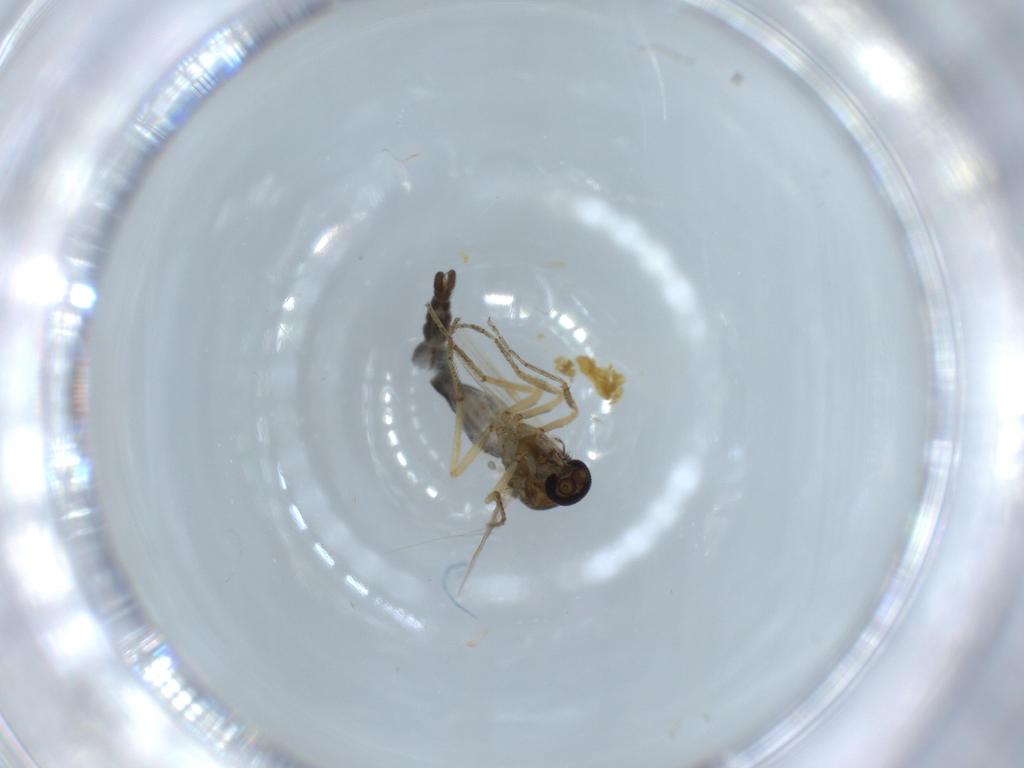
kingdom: Animalia
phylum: Arthropoda
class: Insecta
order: Diptera
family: Ceratopogonidae
